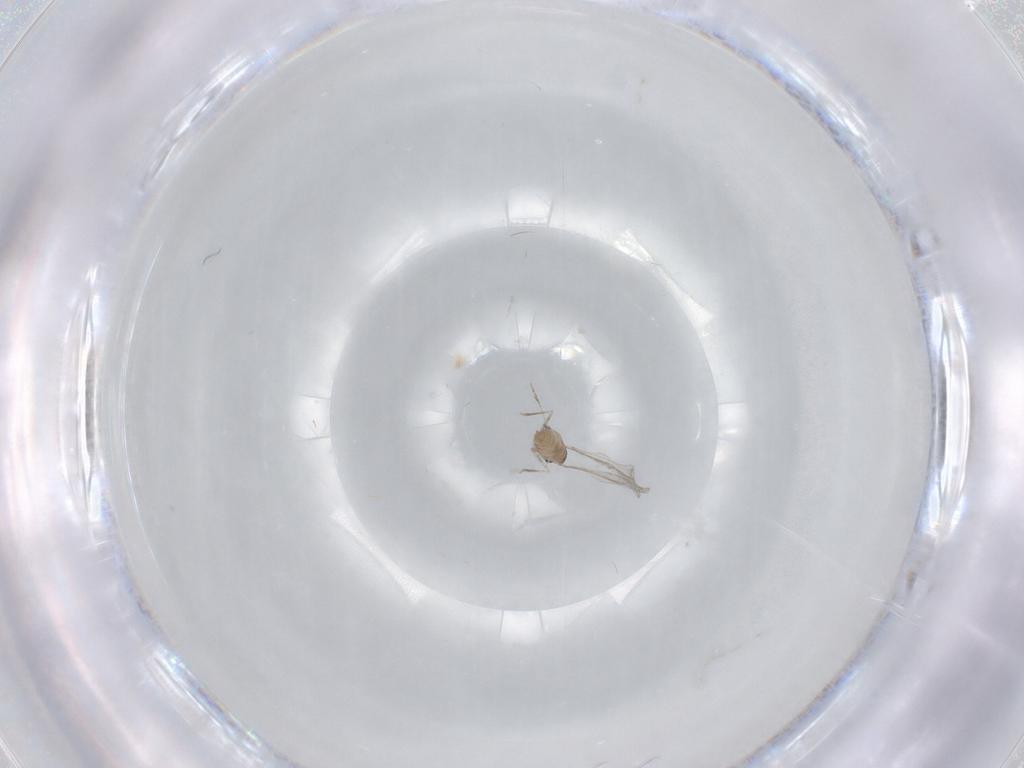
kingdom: Animalia
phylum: Arthropoda
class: Insecta
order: Diptera
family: Cecidomyiidae
